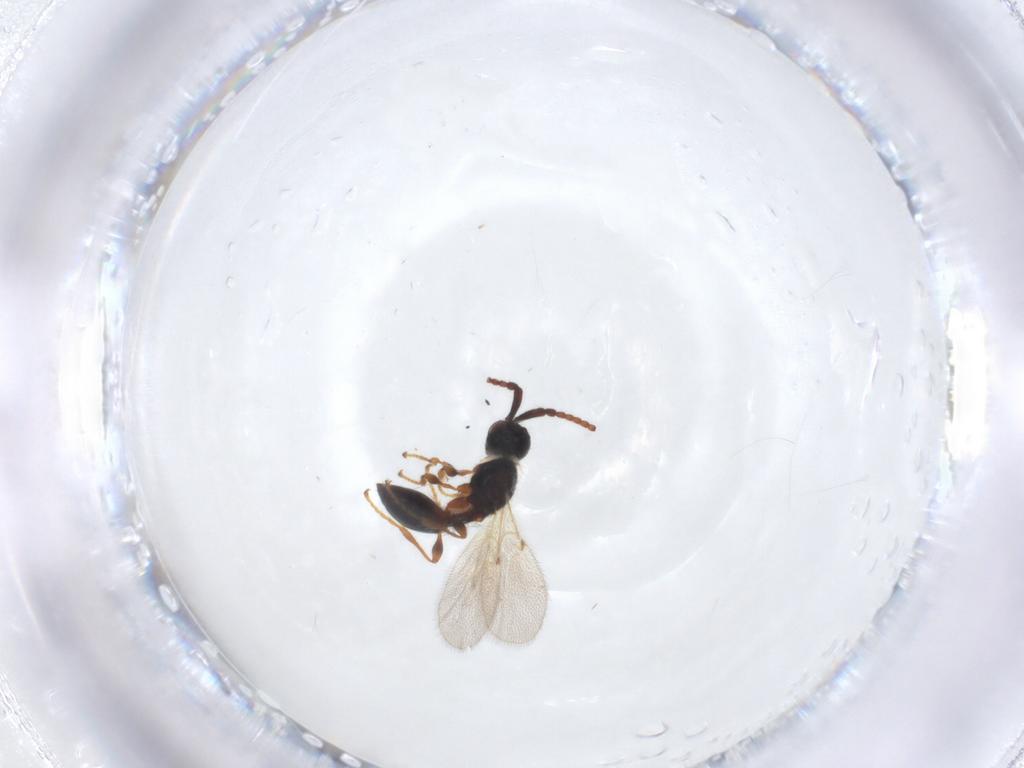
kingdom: Animalia
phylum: Arthropoda
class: Insecta
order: Hymenoptera
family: Diapriidae
